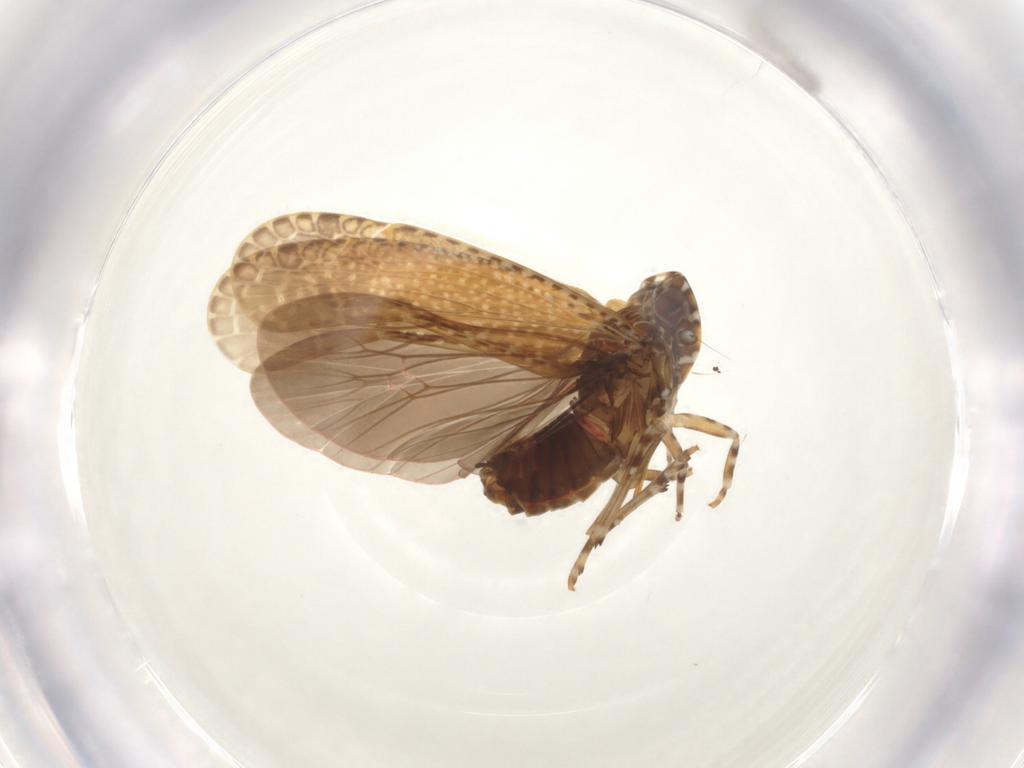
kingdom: Animalia
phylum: Arthropoda
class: Insecta
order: Hemiptera
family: Achilidae
